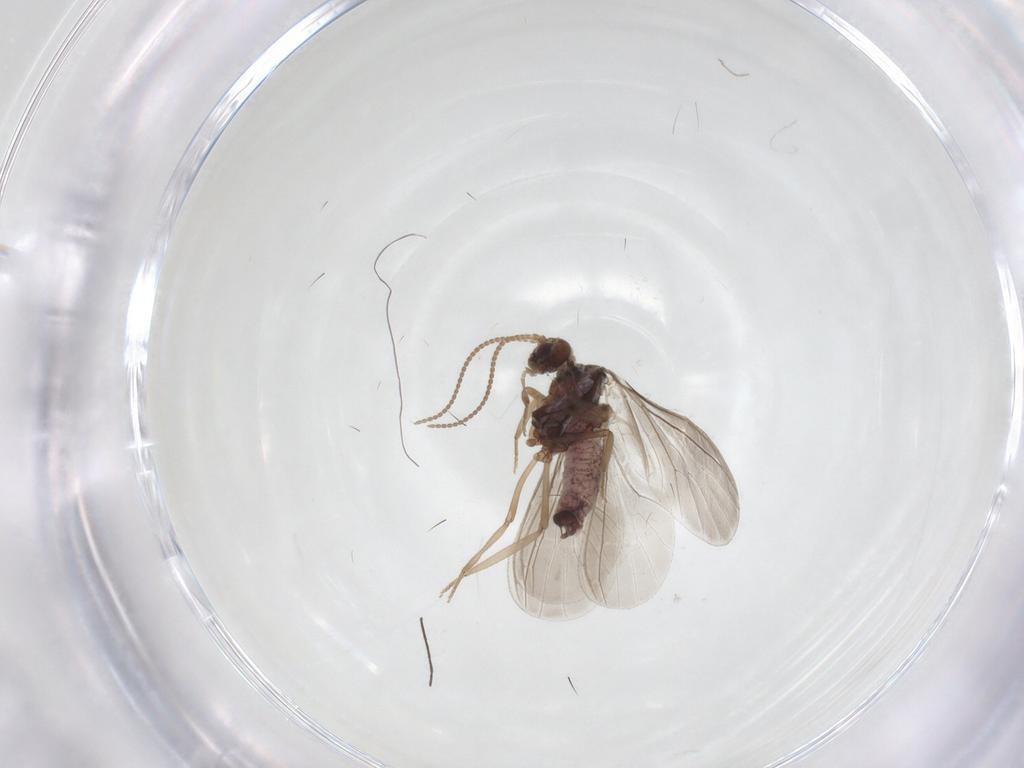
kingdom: Animalia
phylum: Arthropoda
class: Insecta
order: Neuroptera
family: Coniopterygidae
